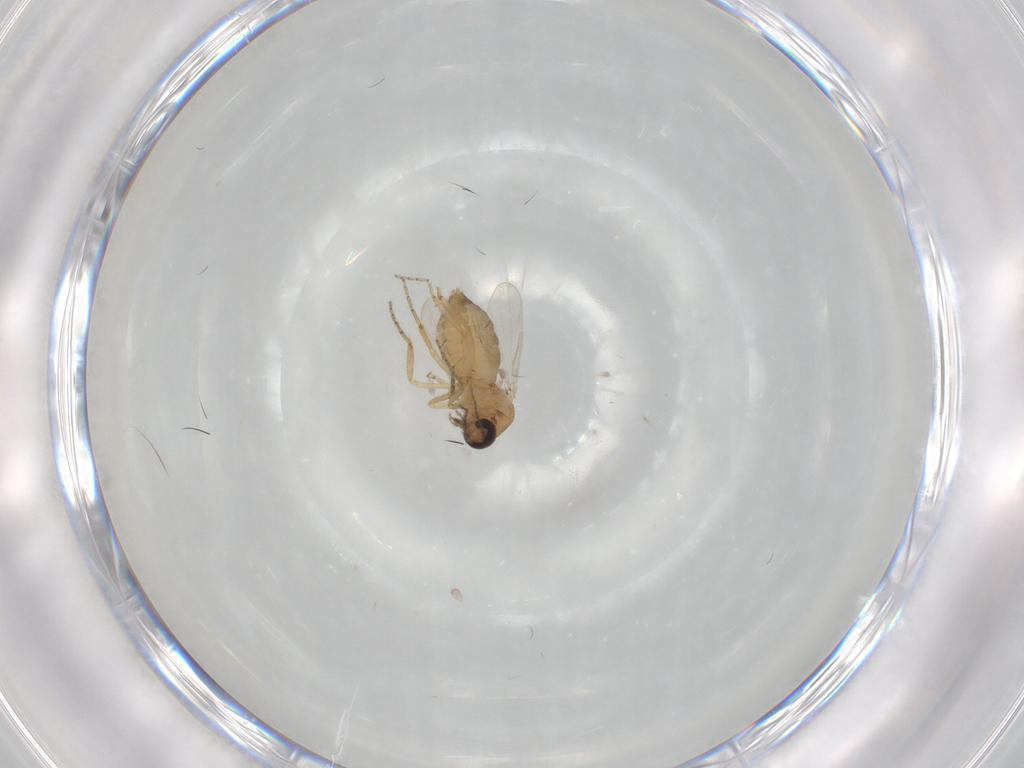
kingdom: Animalia
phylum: Arthropoda
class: Insecta
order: Diptera
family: Ceratopogonidae
